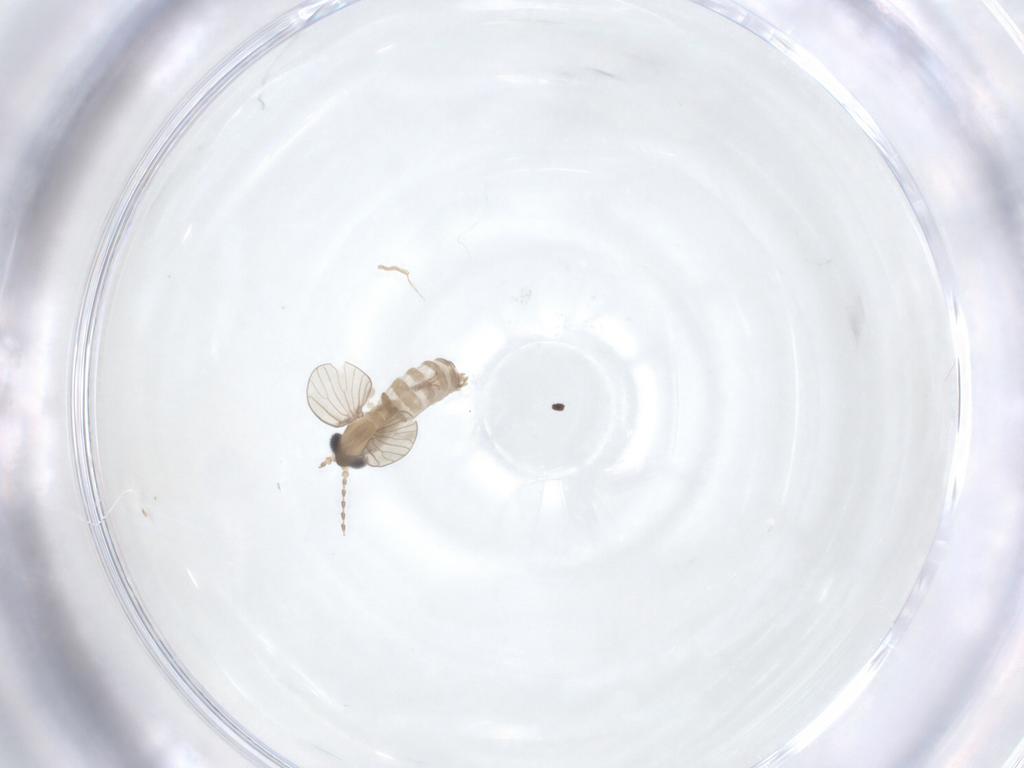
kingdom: Animalia
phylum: Arthropoda
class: Insecta
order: Diptera
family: Psychodidae
